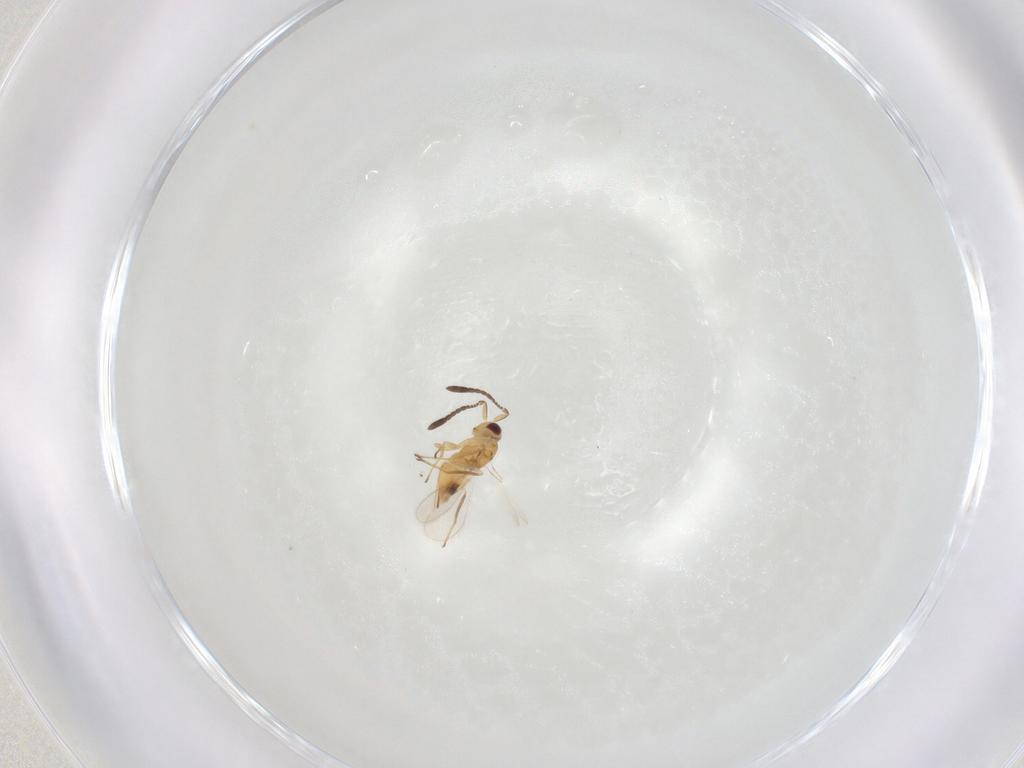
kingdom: Animalia
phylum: Arthropoda
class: Insecta
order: Hymenoptera
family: Mymaridae
